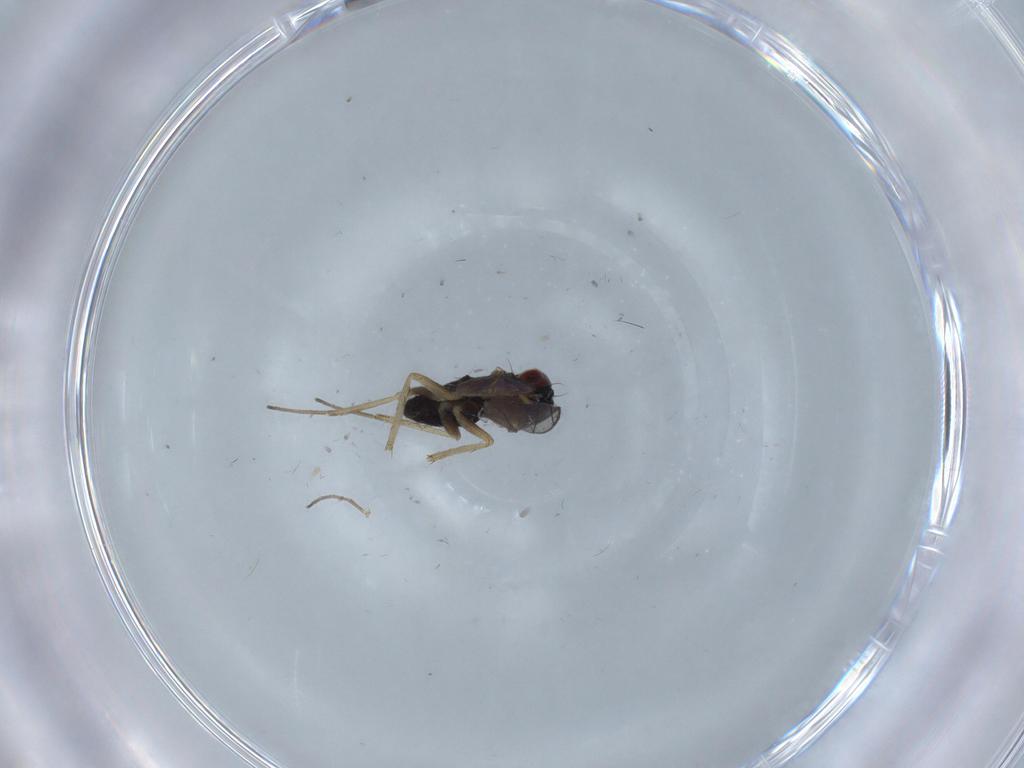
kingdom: Animalia
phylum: Arthropoda
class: Insecta
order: Diptera
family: Dolichopodidae
